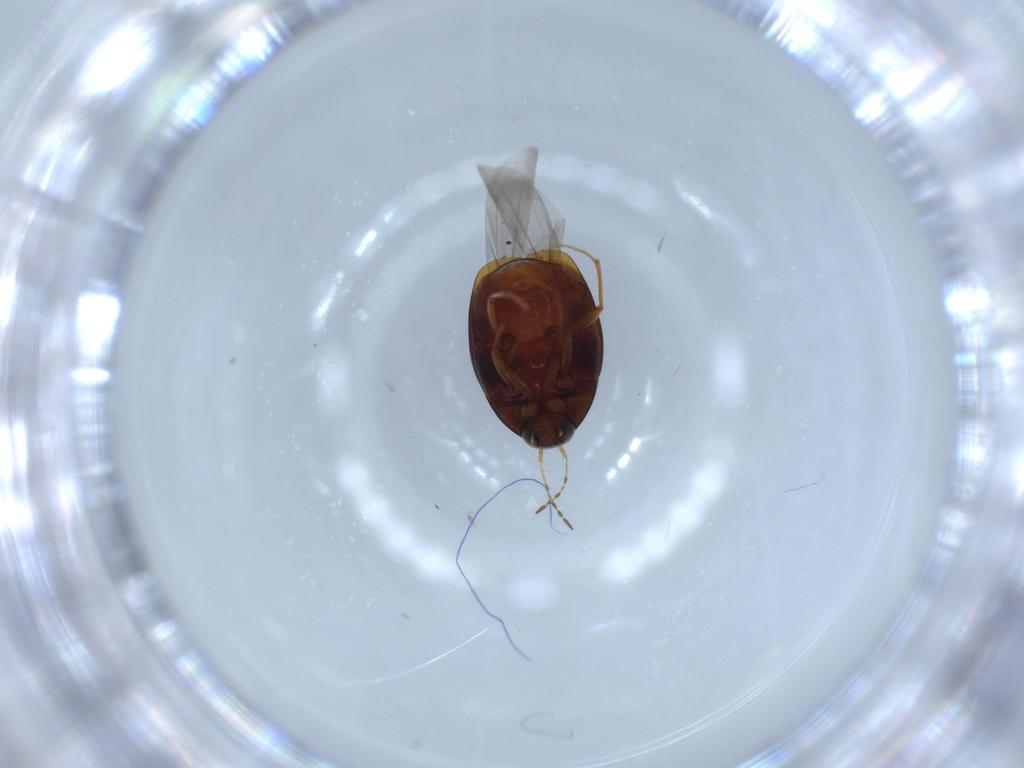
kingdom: Animalia
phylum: Arthropoda
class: Insecta
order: Coleoptera
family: Staphylinidae
